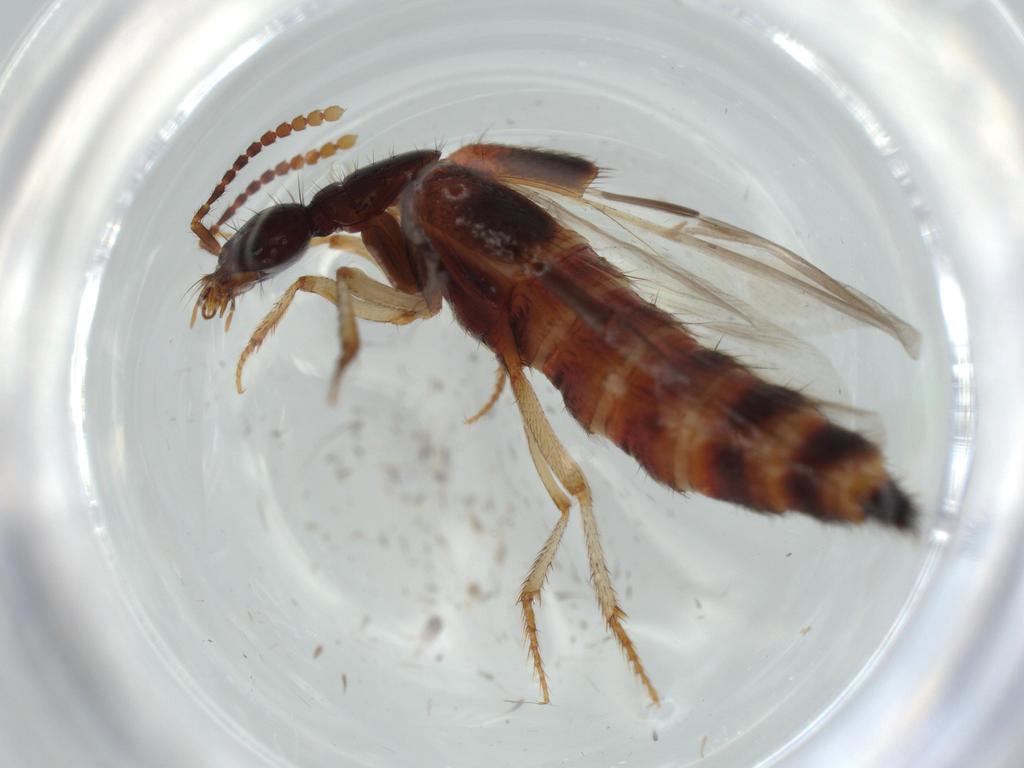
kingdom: Animalia
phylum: Arthropoda
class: Insecta
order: Coleoptera
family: Staphylinidae
